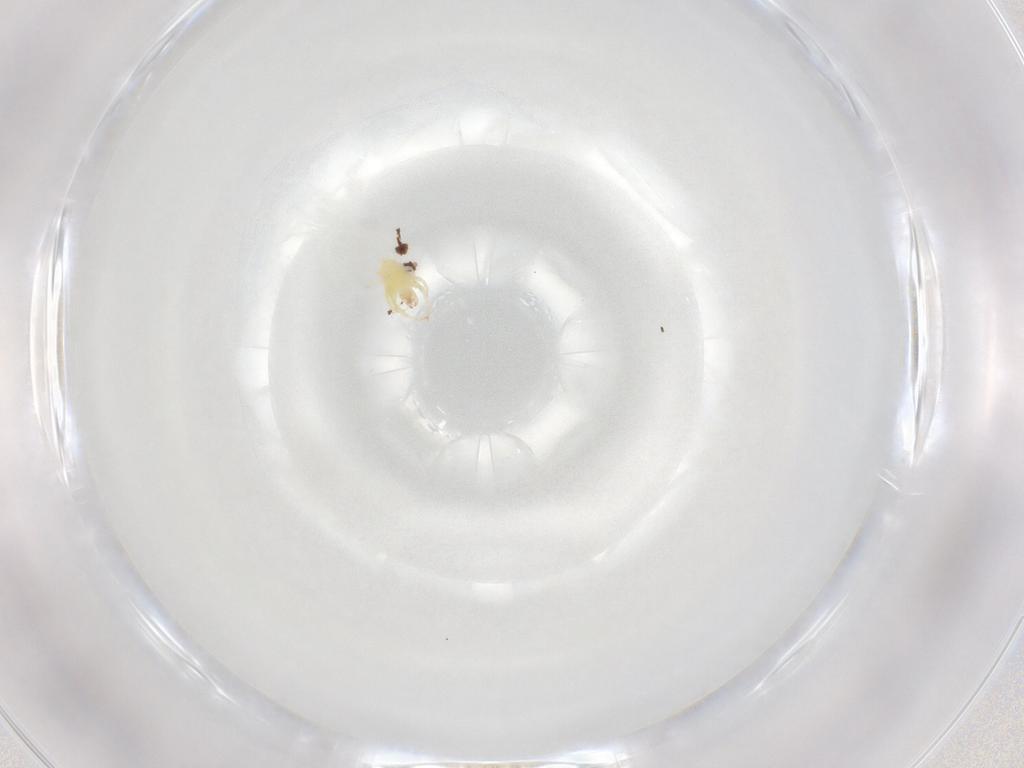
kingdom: Animalia
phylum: Arthropoda
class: Arachnida
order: Trombidiformes
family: Stigmaeidae
